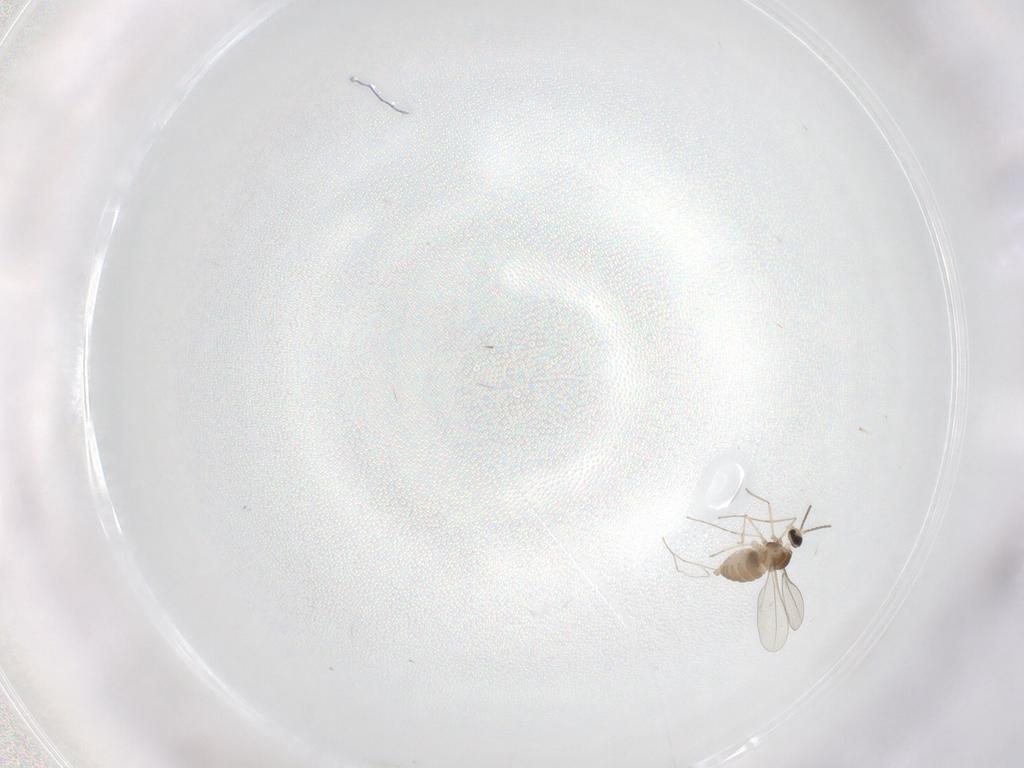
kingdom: Animalia
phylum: Arthropoda
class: Insecta
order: Diptera
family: Cecidomyiidae
